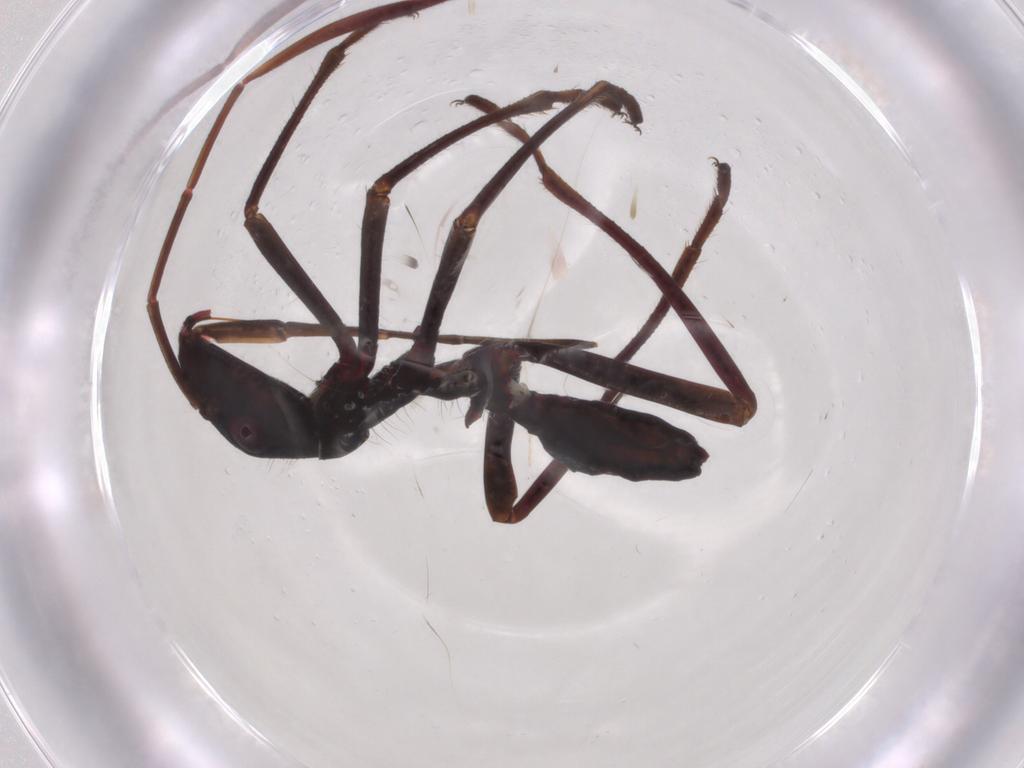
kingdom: Animalia
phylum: Arthropoda
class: Insecta
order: Hemiptera
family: Alydidae
